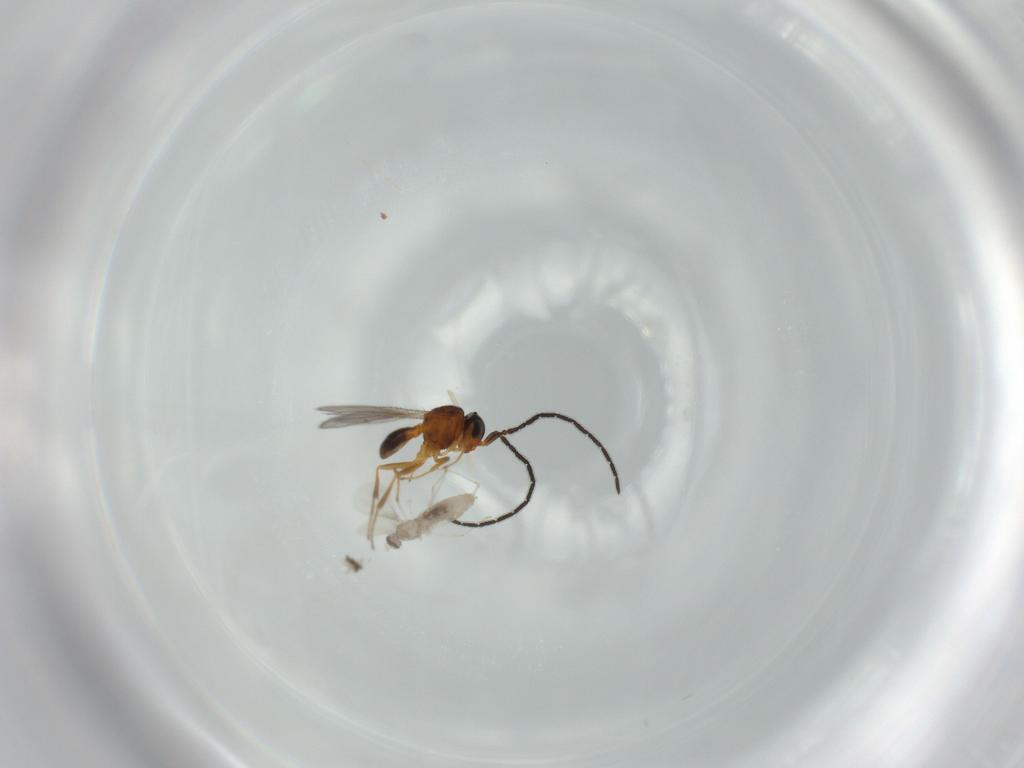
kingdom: Animalia
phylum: Arthropoda
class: Insecta
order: Diptera
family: Cecidomyiidae
